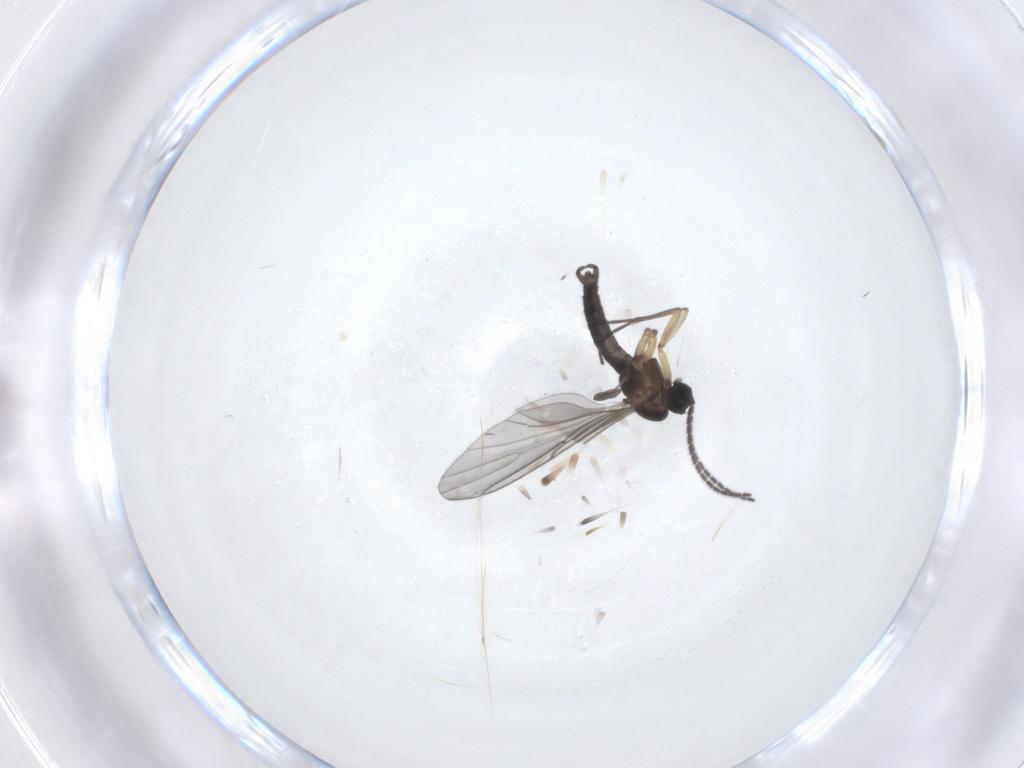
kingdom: Animalia
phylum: Arthropoda
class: Insecta
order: Diptera
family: Sciaridae
